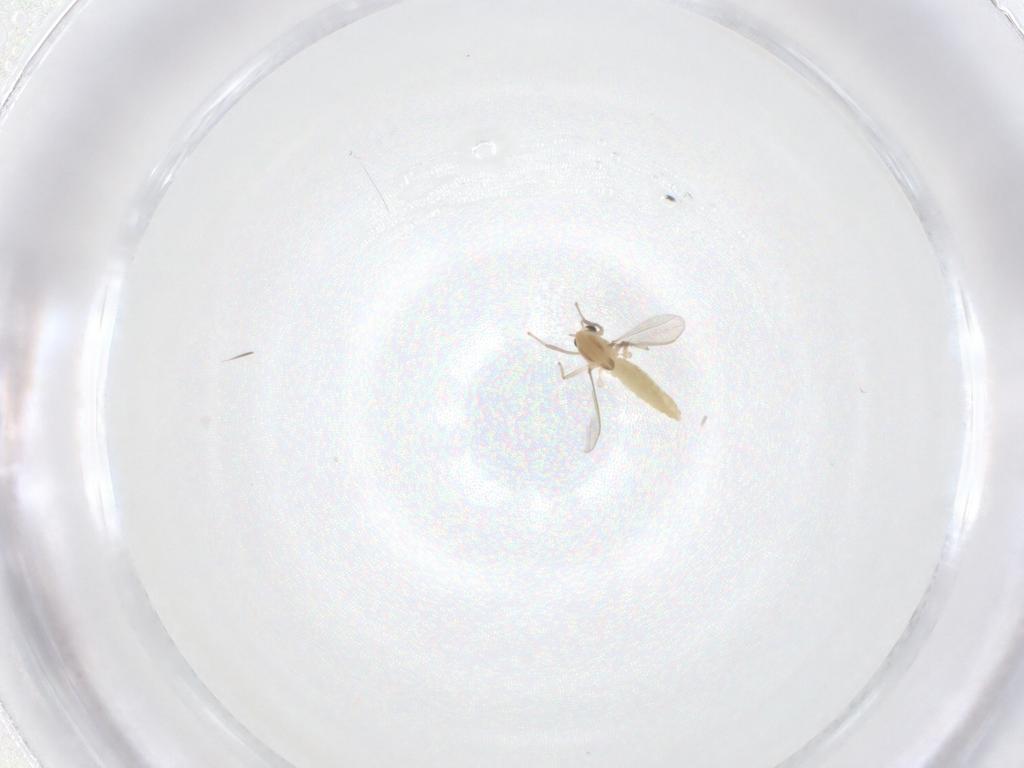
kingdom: Animalia
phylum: Arthropoda
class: Insecta
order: Diptera
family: Chironomidae
